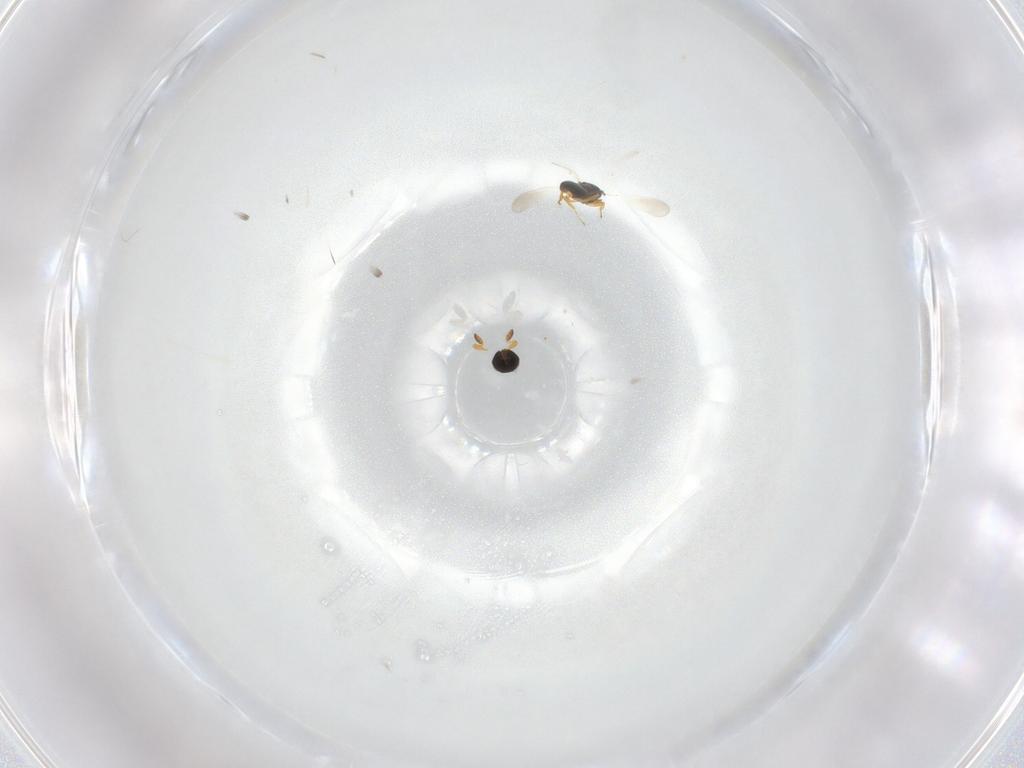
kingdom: Animalia
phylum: Arthropoda
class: Insecta
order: Hymenoptera
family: Platygastridae
